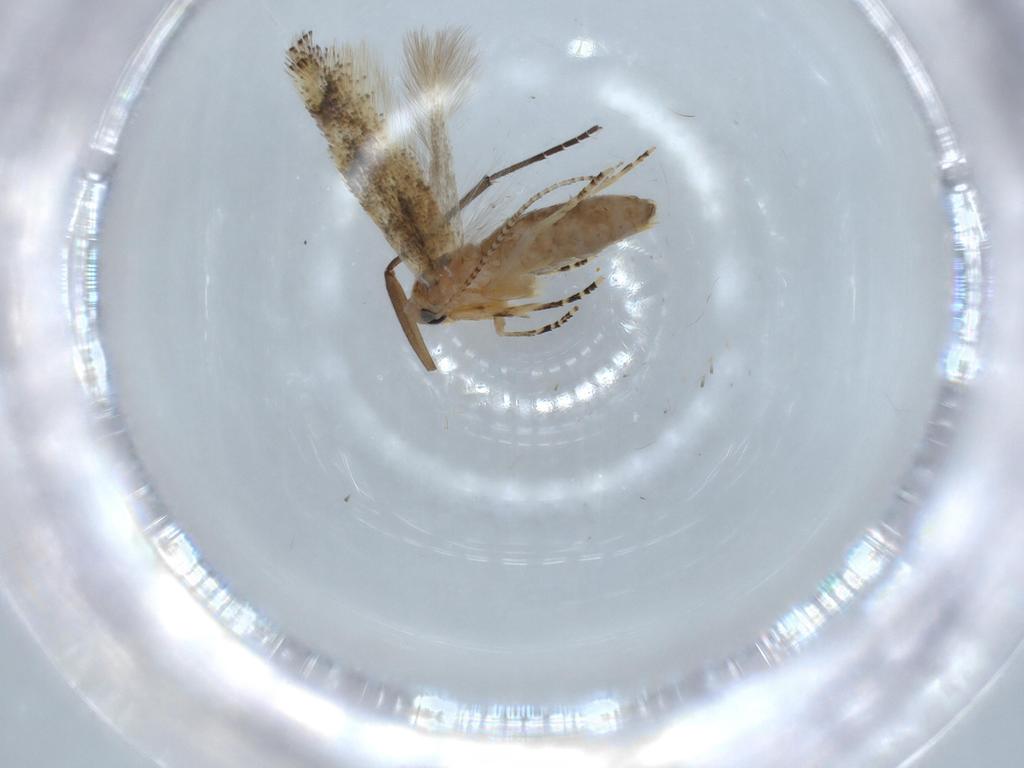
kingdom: Animalia
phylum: Arthropoda
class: Insecta
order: Lepidoptera
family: Bucculatricidae
